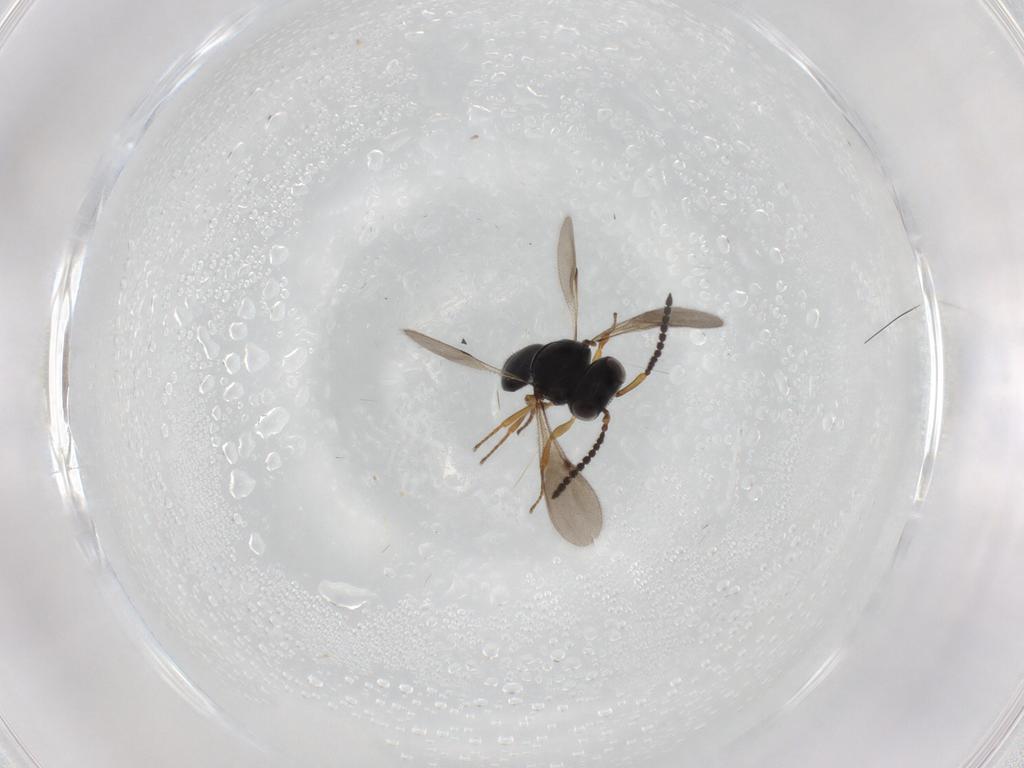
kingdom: Animalia
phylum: Arthropoda
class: Insecta
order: Hymenoptera
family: Scelionidae
